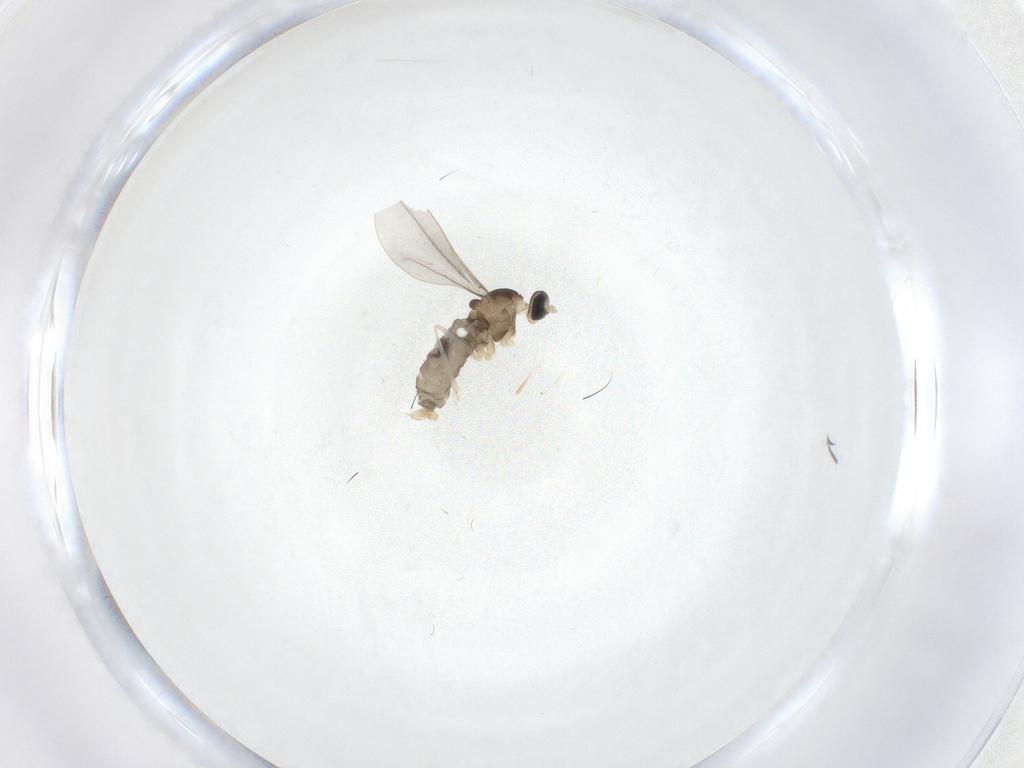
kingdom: Animalia
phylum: Arthropoda
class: Insecta
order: Diptera
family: Cecidomyiidae
